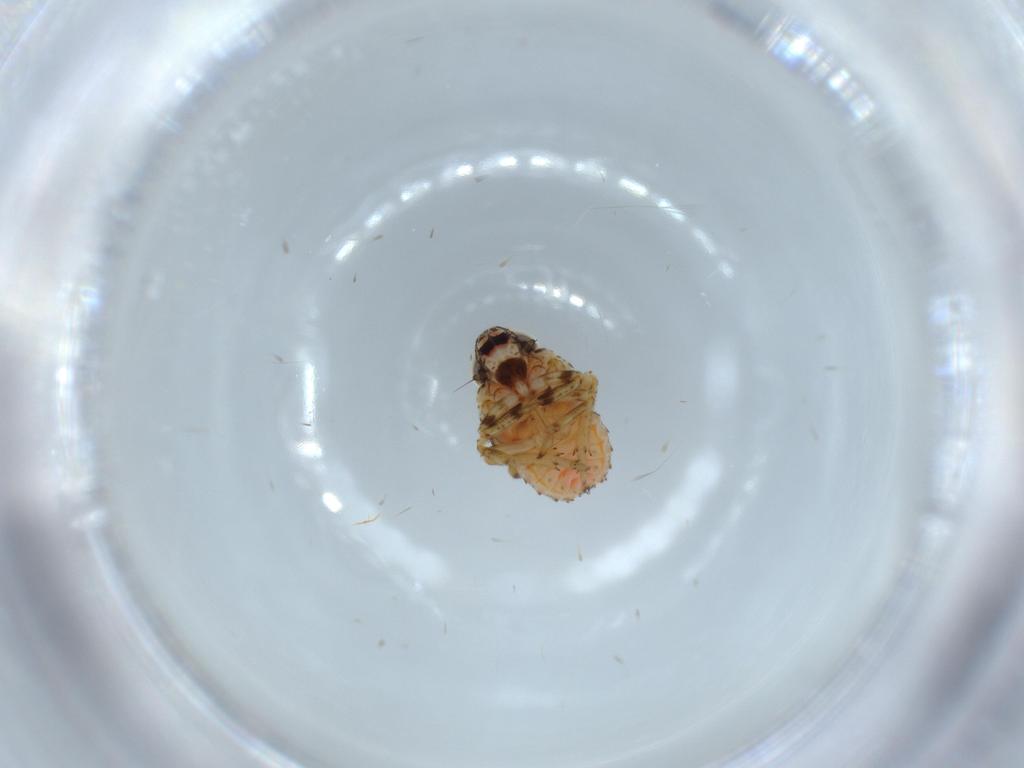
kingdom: Animalia
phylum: Arthropoda
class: Insecta
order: Hemiptera
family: Issidae
